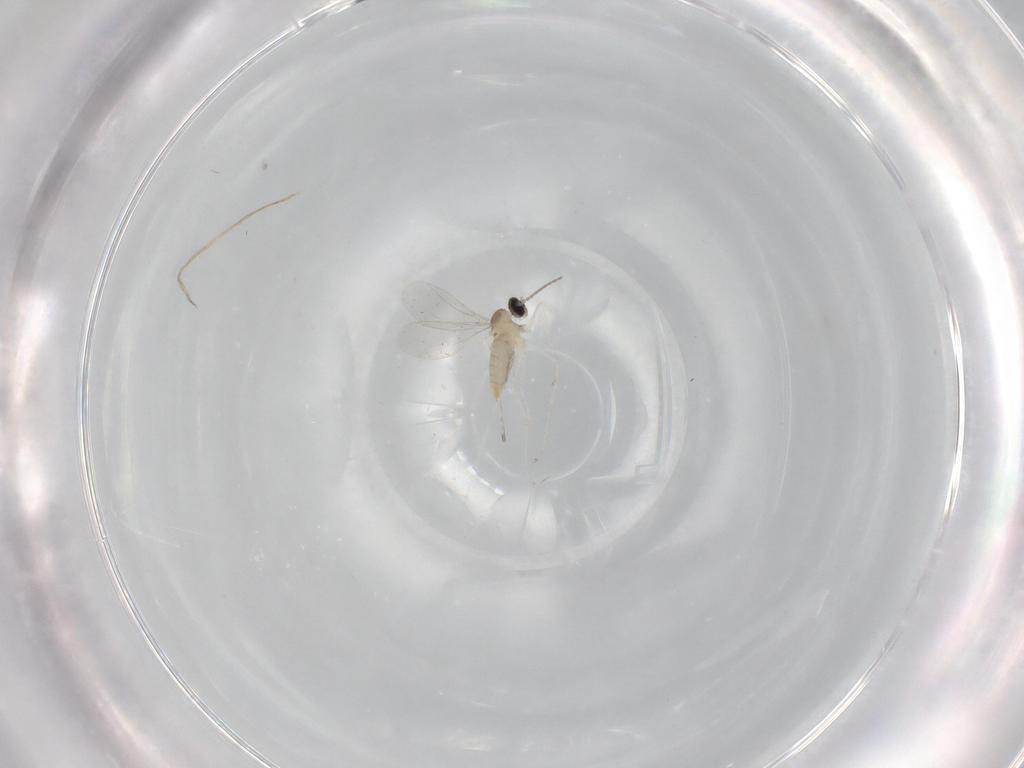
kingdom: Animalia
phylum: Arthropoda
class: Insecta
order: Diptera
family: Cecidomyiidae
